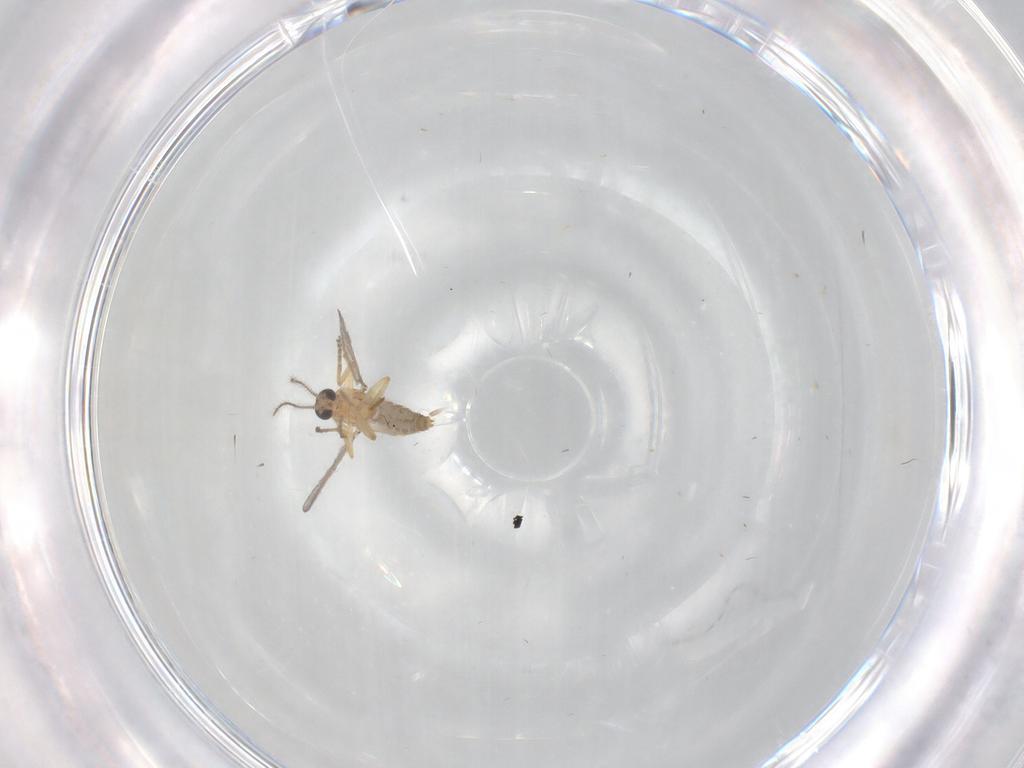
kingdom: Animalia
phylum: Arthropoda
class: Insecta
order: Diptera
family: Ceratopogonidae
